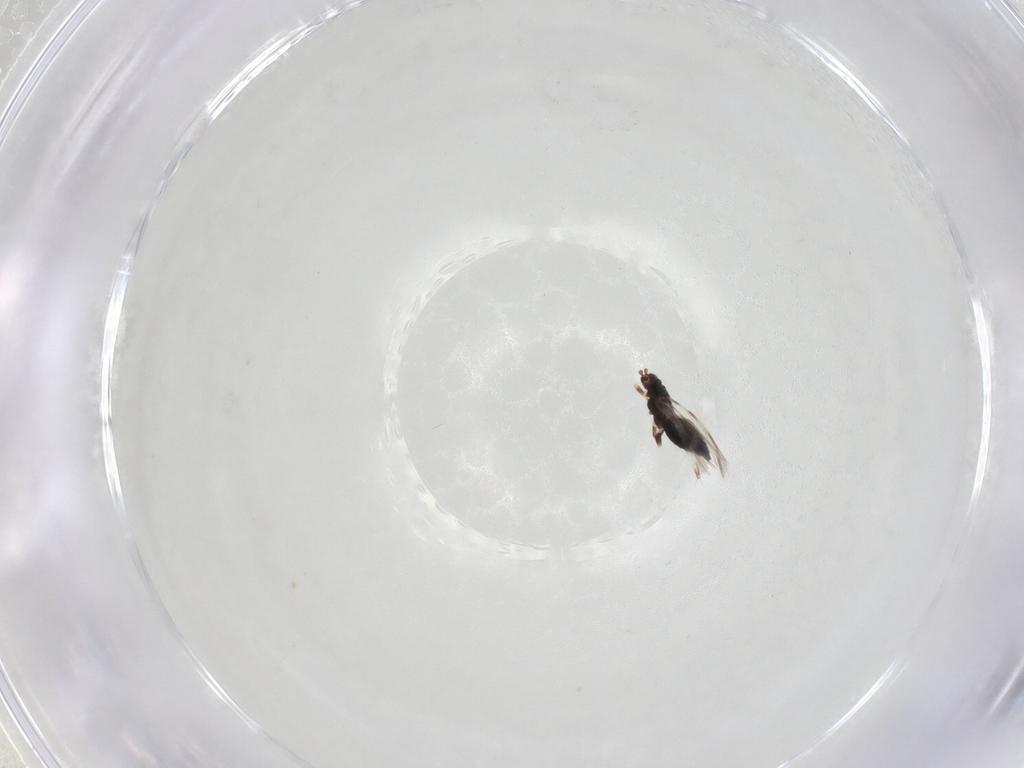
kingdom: Animalia
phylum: Arthropoda
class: Insecta
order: Thysanoptera
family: Thripidae
